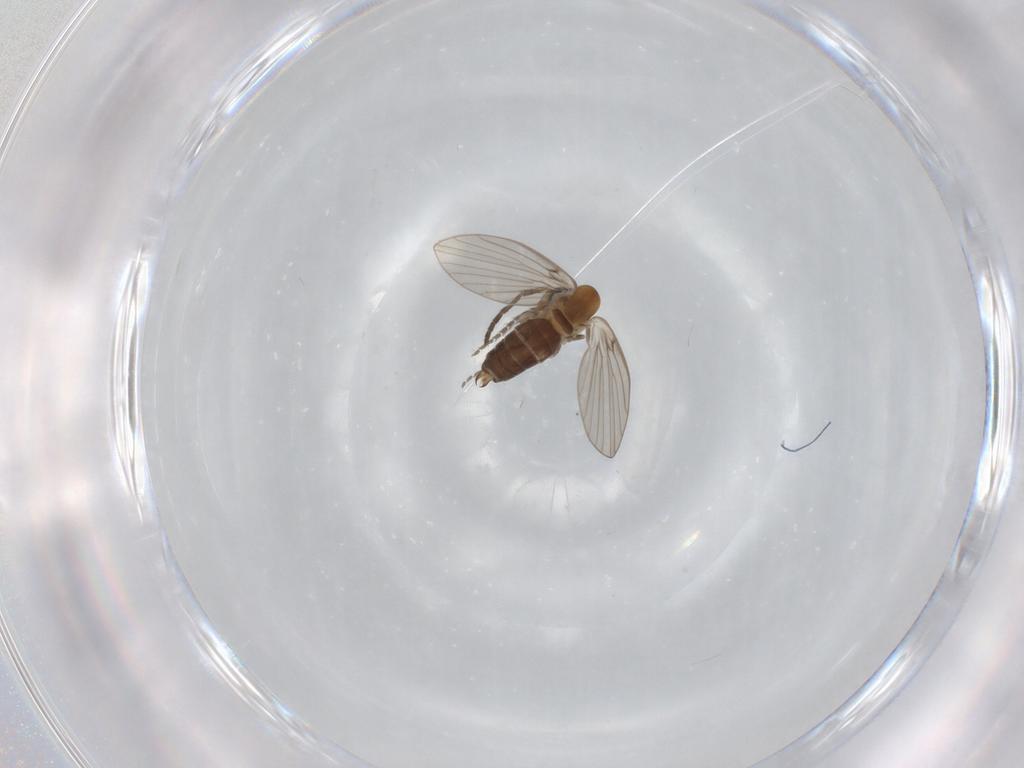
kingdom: Animalia
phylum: Arthropoda
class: Insecta
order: Diptera
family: Psychodidae
